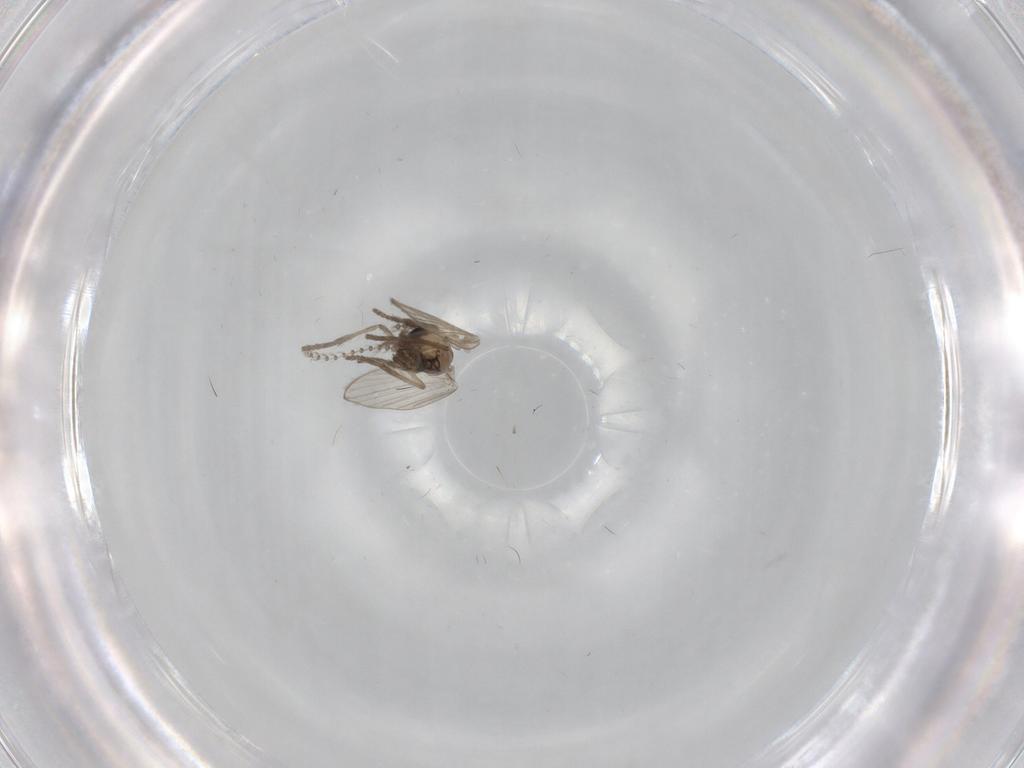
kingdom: Animalia
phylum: Arthropoda
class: Insecta
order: Diptera
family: Psychodidae
